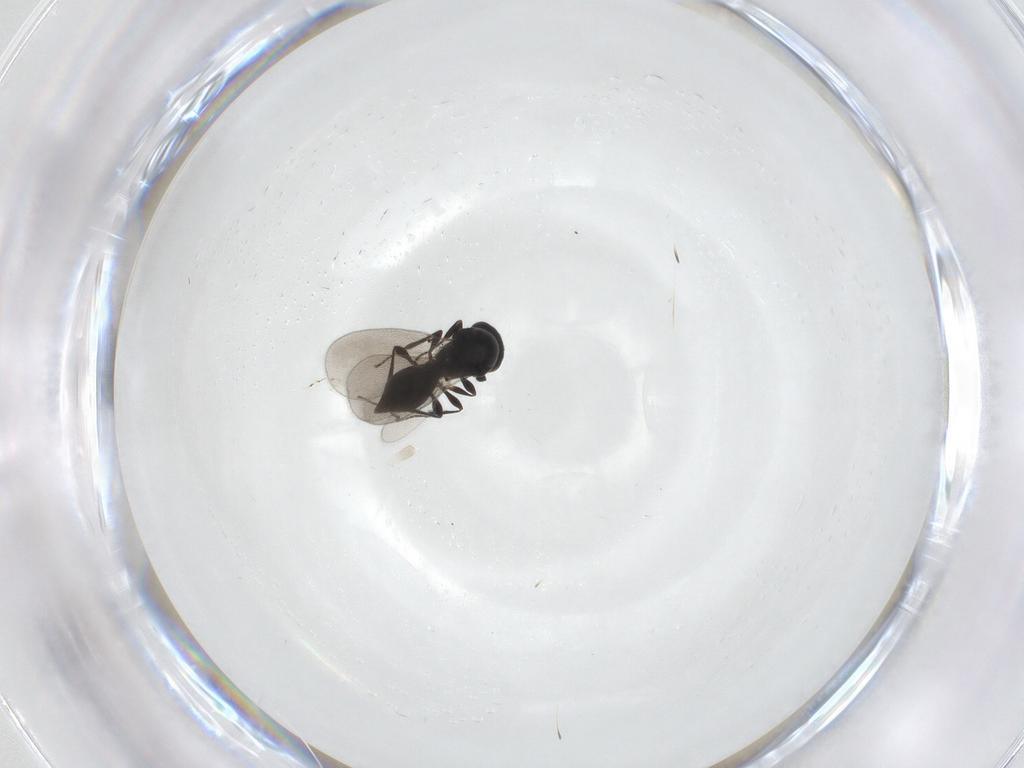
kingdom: Animalia
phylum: Arthropoda
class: Insecta
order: Hymenoptera
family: Platygastridae
